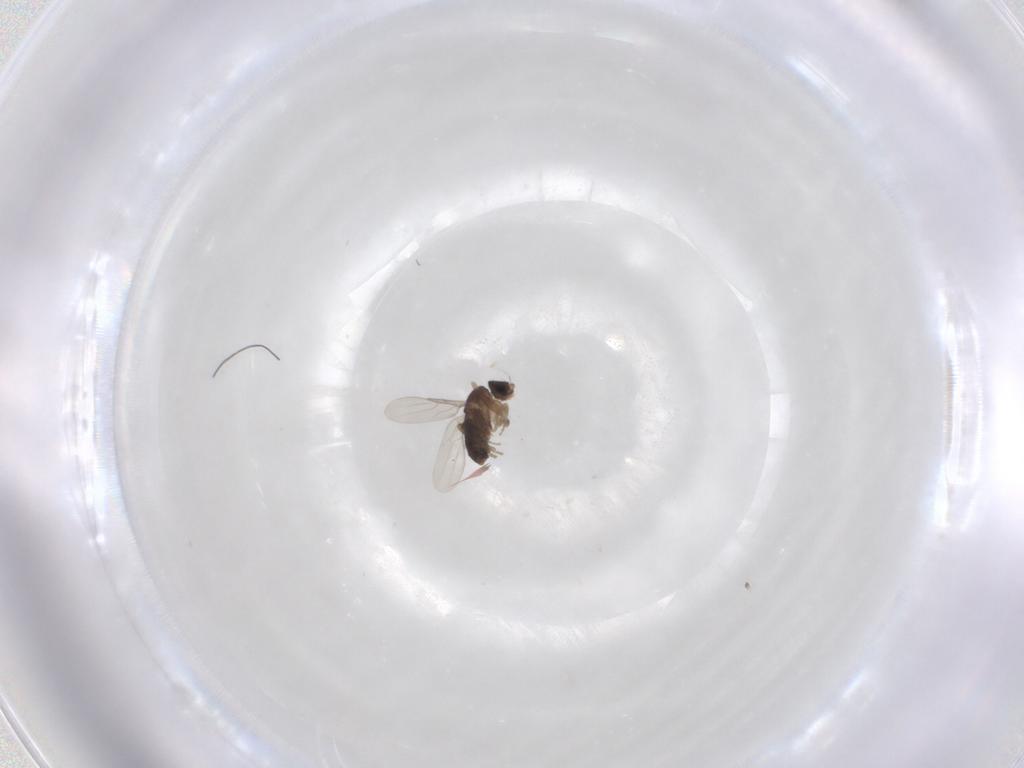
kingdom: Animalia
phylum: Arthropoda
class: Insecta
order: Diptera
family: Phoridae
